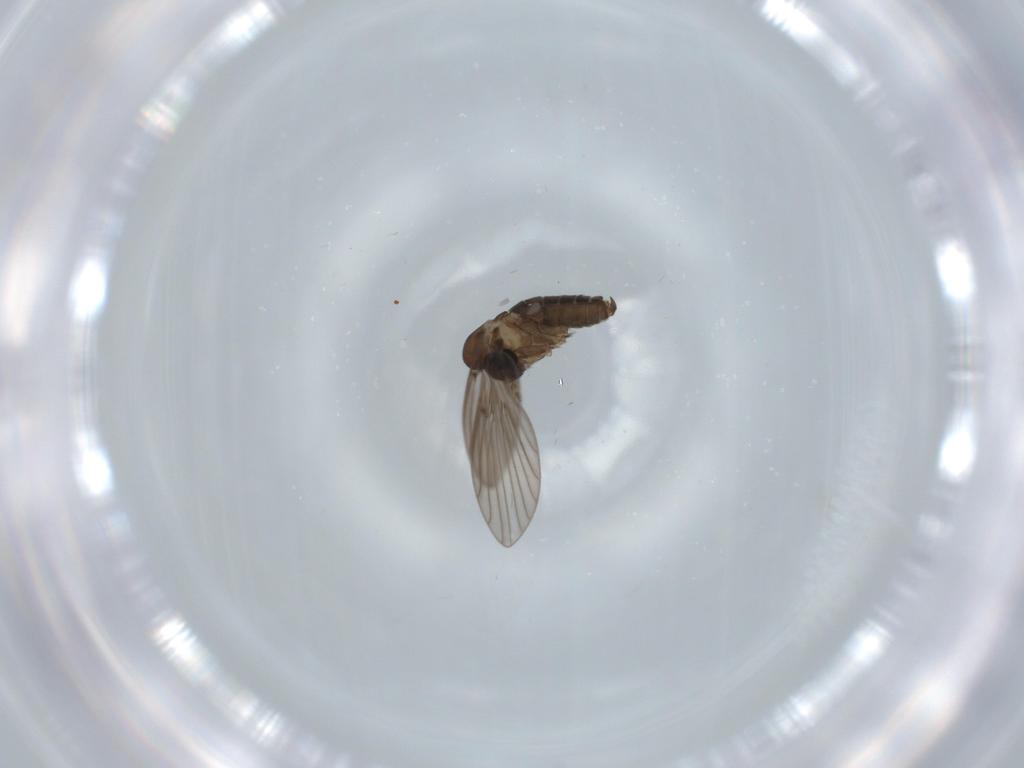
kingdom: Animalia
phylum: Arthropoda
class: Insecta
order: Diptera
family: Psychodidae
